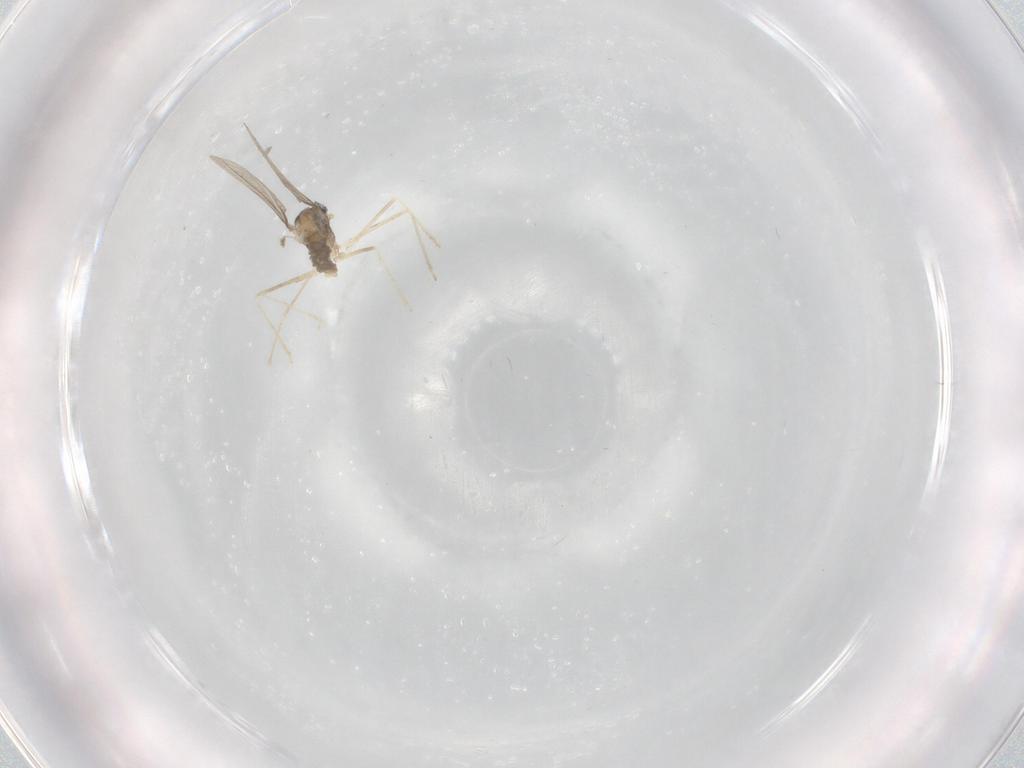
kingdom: Animalia
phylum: Arthropoda
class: Insecta
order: Diptera
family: Cecidomyiidae
